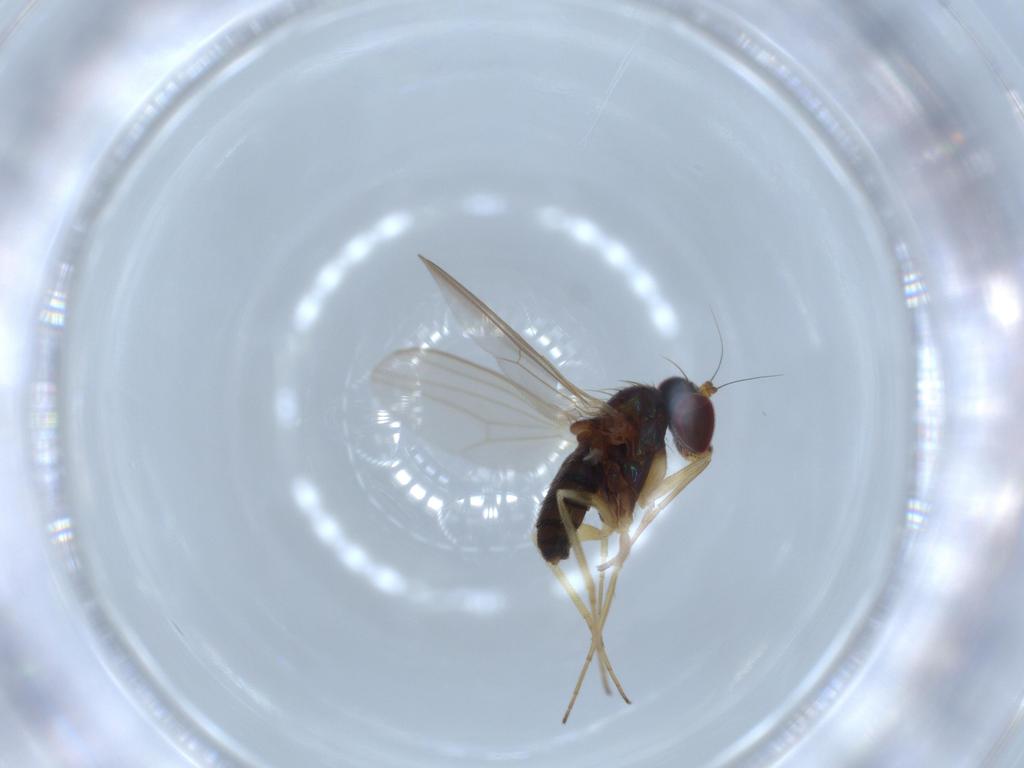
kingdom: Animalia
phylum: Arthropoda
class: Insecta
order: Diptera
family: Dolichopodidae
